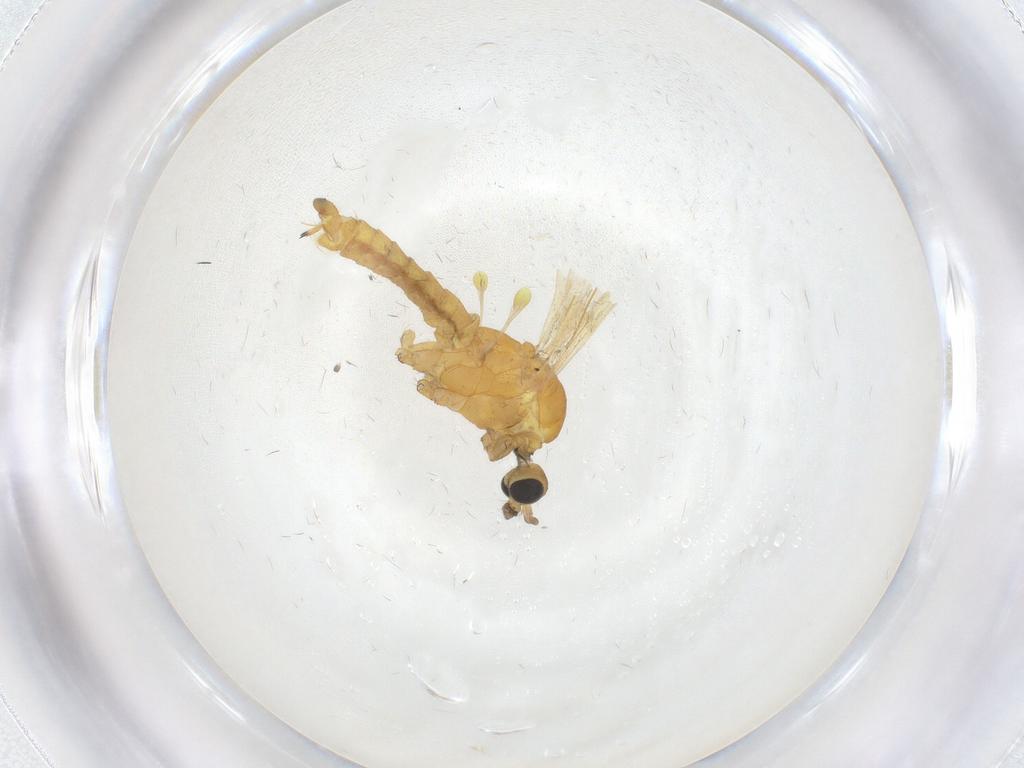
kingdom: Animalia
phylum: Arthropoda
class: Insecta
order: Diptera
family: Chironomidae
